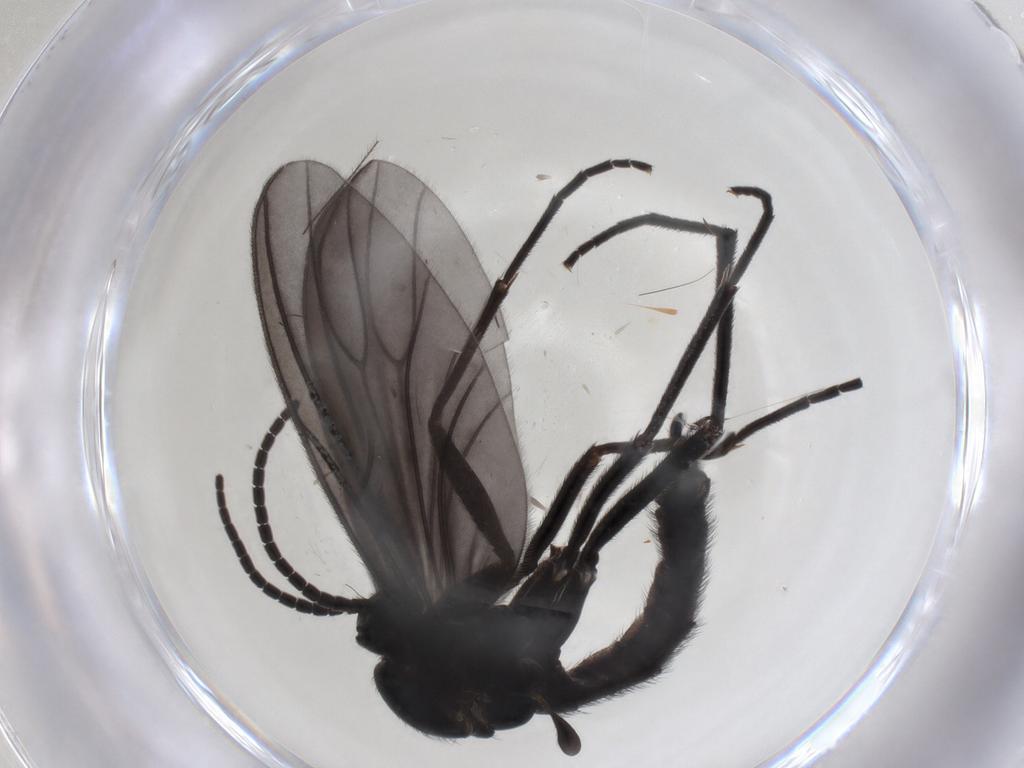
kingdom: Animalia
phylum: Arthropoda
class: Insecta
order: Diptera
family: Sciaridae
